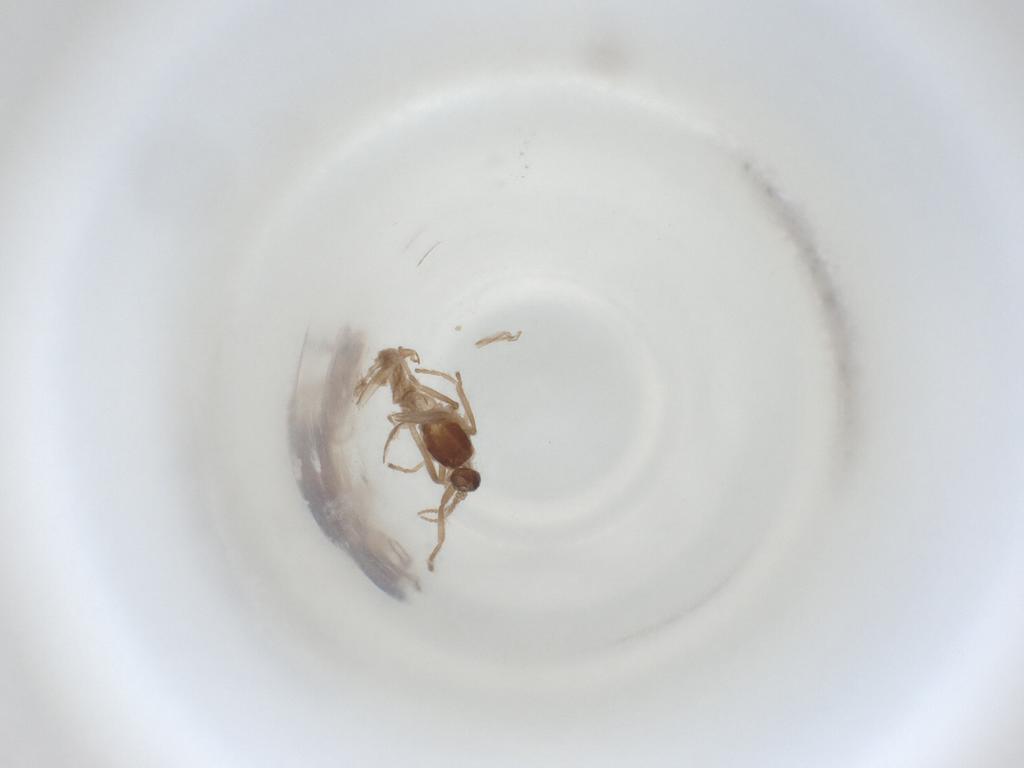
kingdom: Animalia
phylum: Arthropoda
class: Insecta
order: Diptera
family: Cecidomyiidae
